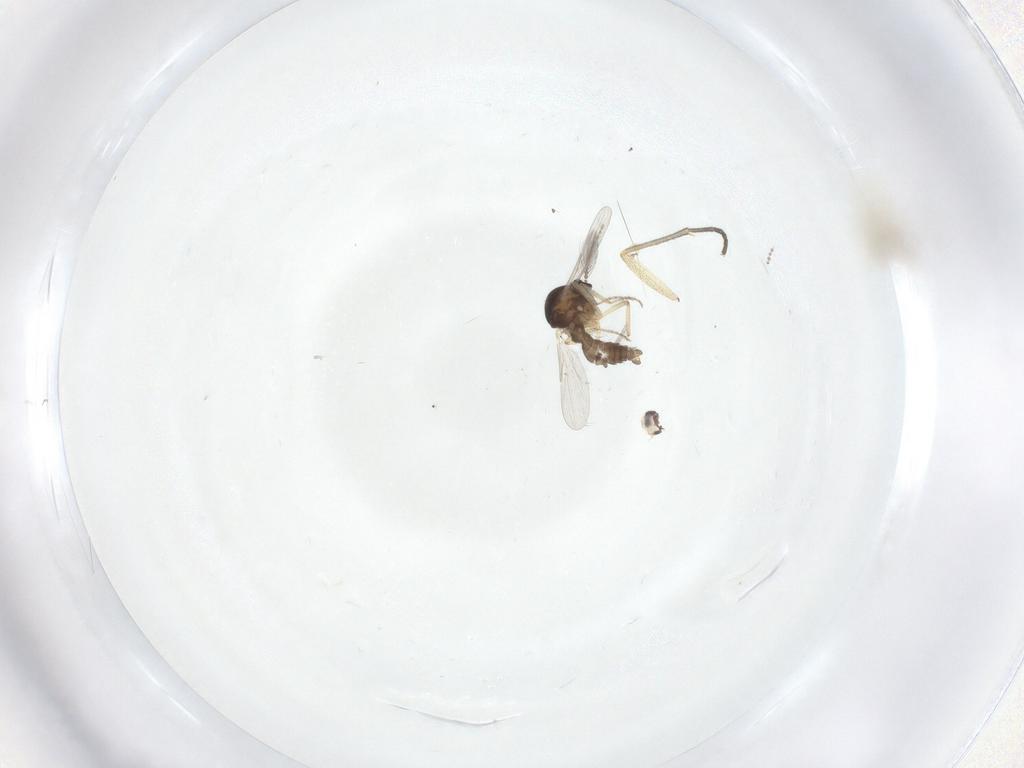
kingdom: Animalia
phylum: Arthropoda
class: Insecta
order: Diptera
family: Ceratopogonidae
